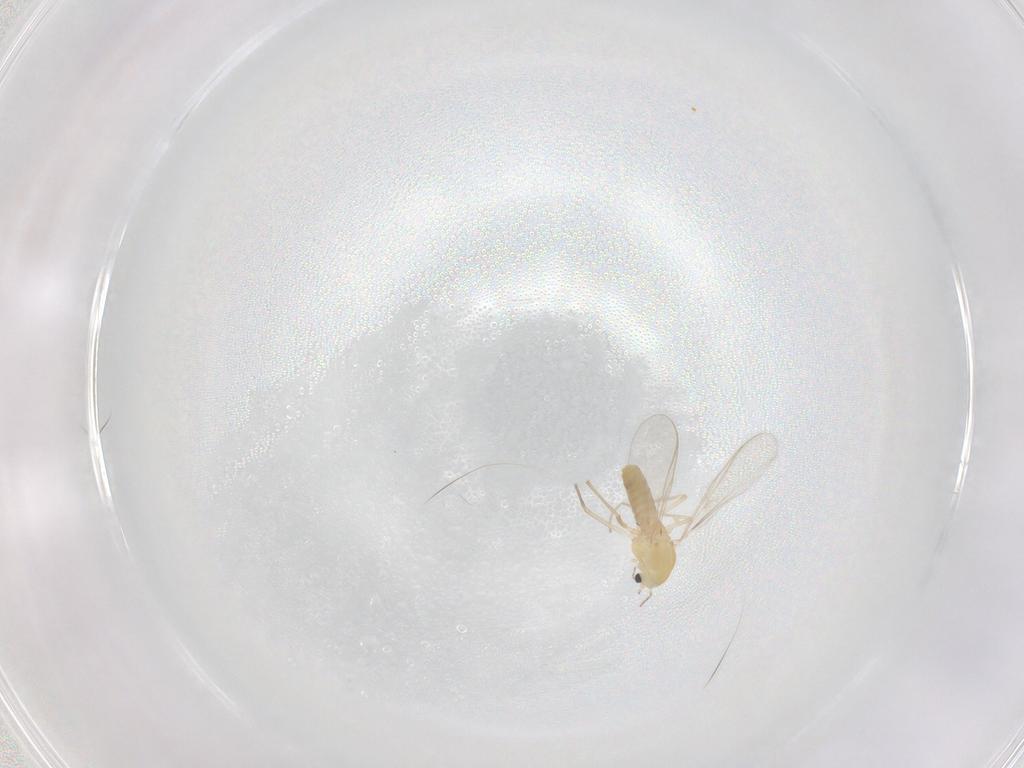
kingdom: Animalia
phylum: Arthropoda
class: Insecta
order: Diptera
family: Chironomidae
